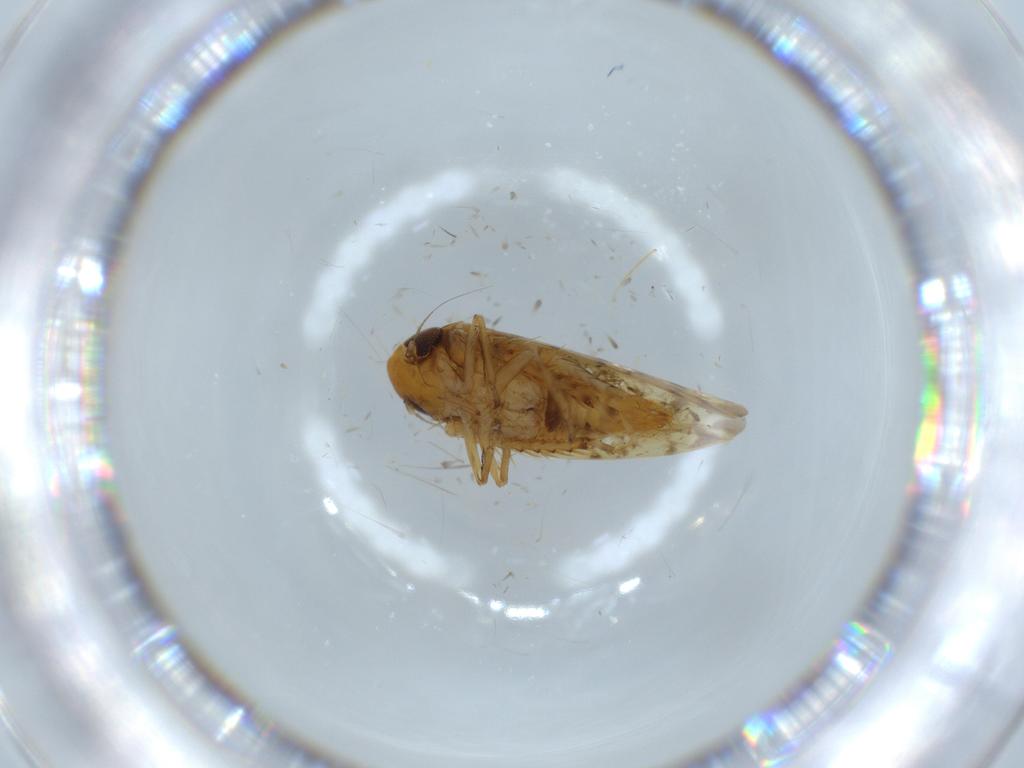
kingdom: Animalia
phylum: Arthropoda
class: Insecta
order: Hemiptera
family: Cicadellidae
